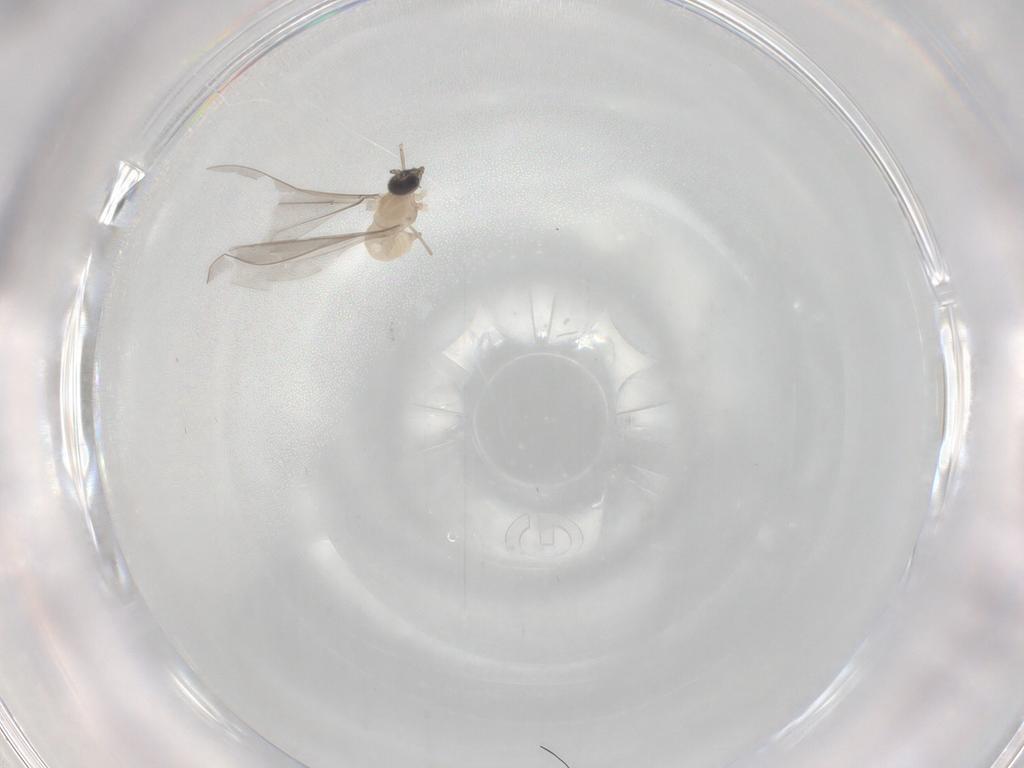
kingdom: Animalia
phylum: Arthropoda
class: Insecta
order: Diptera
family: Cecidomyiidae
